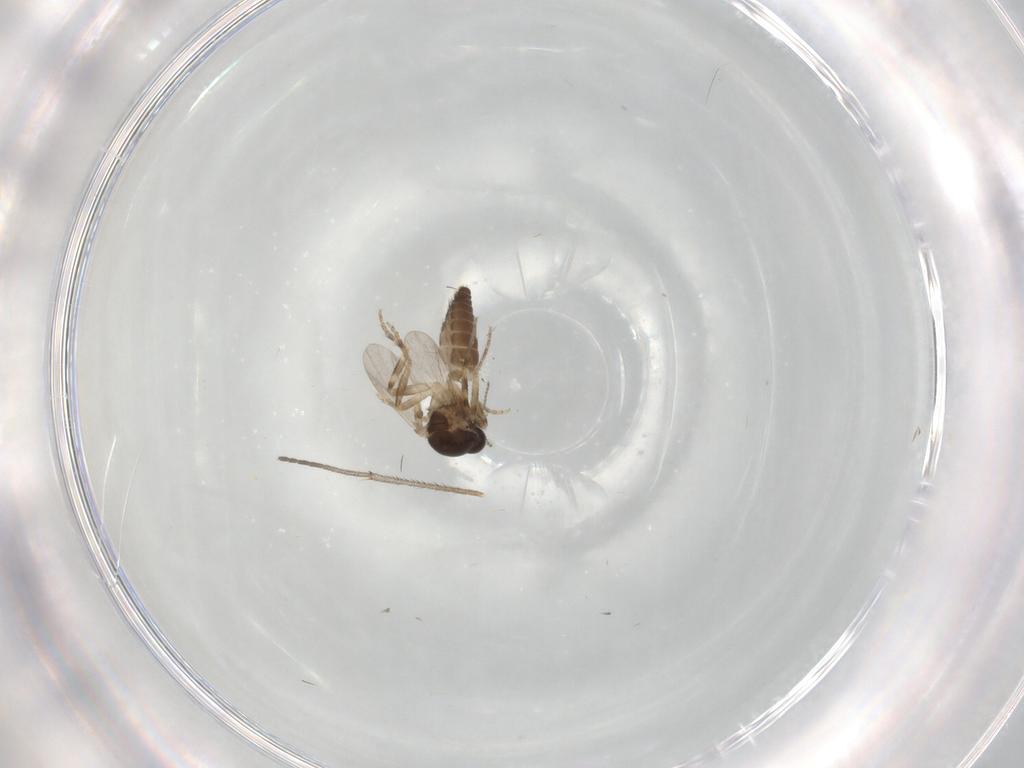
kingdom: Animalia
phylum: Arthropoda
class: Insecta
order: Diptera
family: Ceratopogonidae
